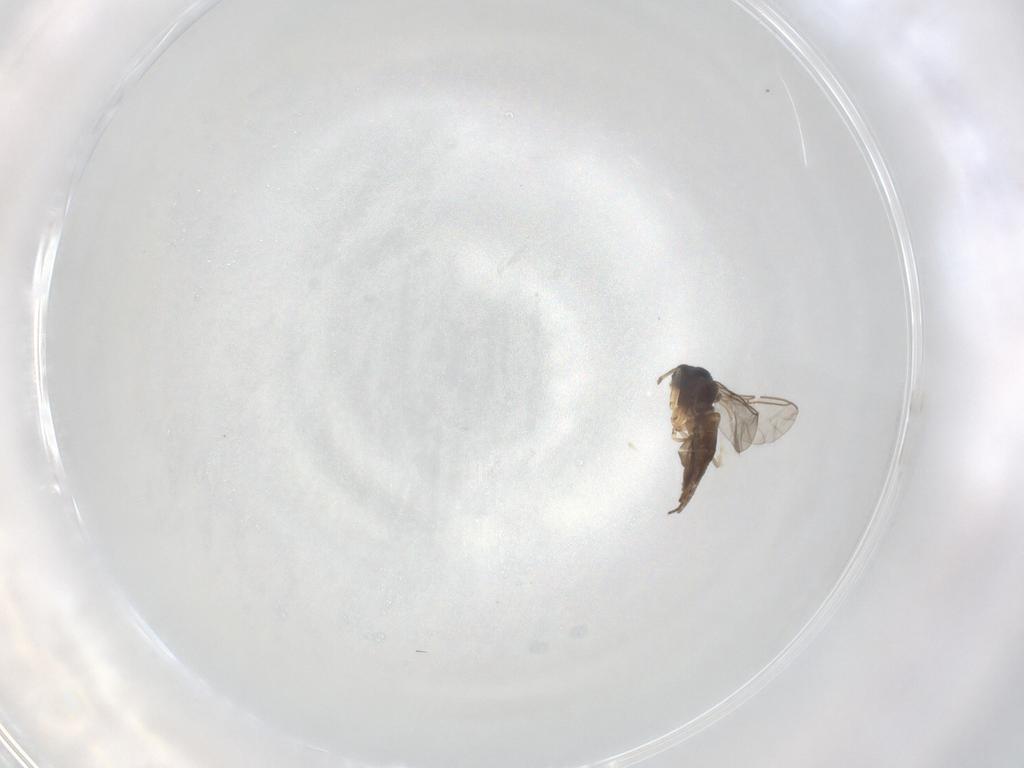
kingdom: Animalia
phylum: Arthropoda
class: Insecta
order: Diptera
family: Sciaridae
